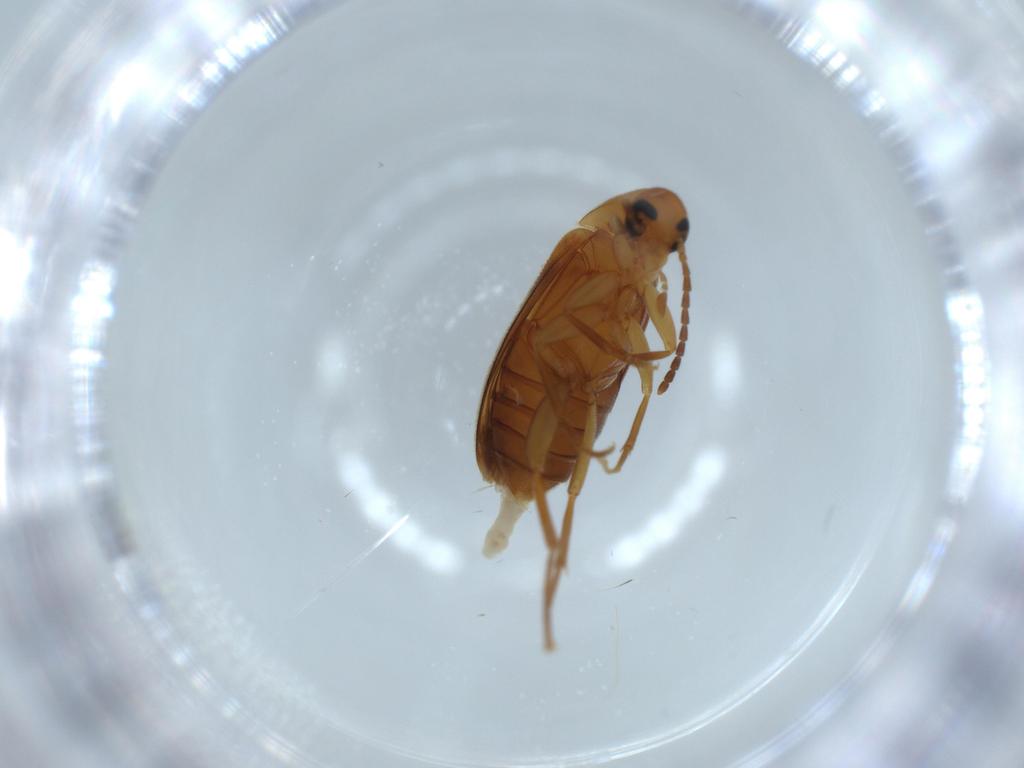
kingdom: Animalia
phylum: Arthropoda
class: Insecta
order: Coleoptera
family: Scraptiidae
